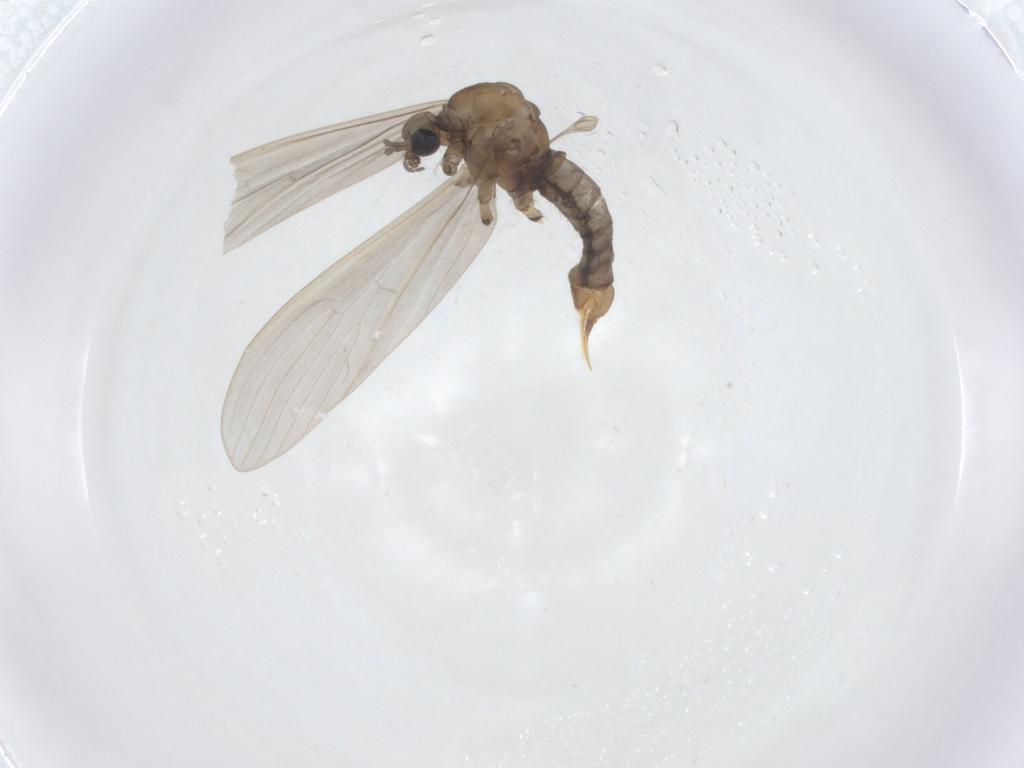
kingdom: Animalia
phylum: Arthropoda
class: Insecta
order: Diptera
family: Limoniidae
